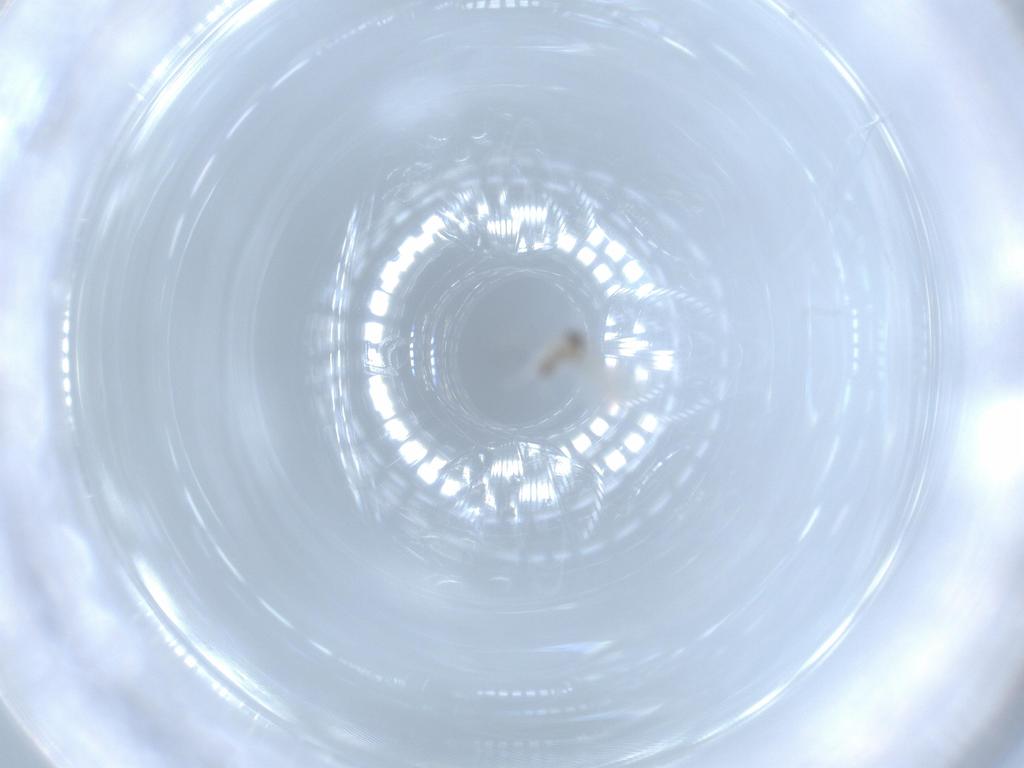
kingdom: Animalia
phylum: Arthropoda
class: Insecta
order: Diptera
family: Cecidomyiidae
